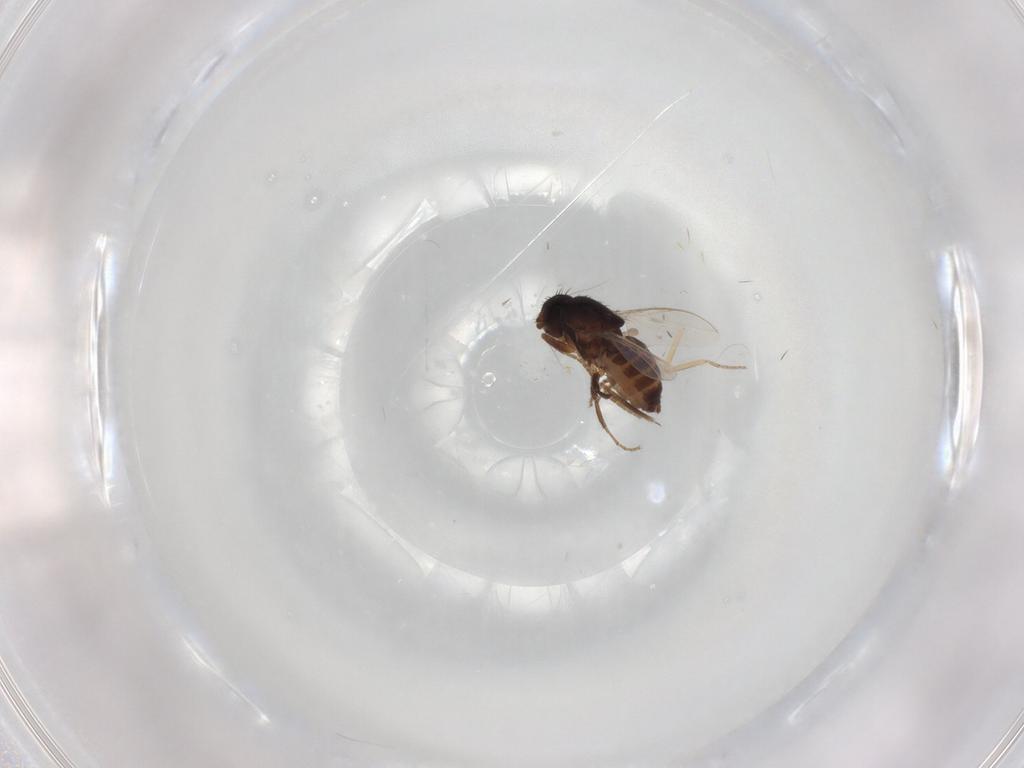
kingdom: Animalia
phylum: Arthropoda
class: Insecta
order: Diptera
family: Sphaeroceridae
